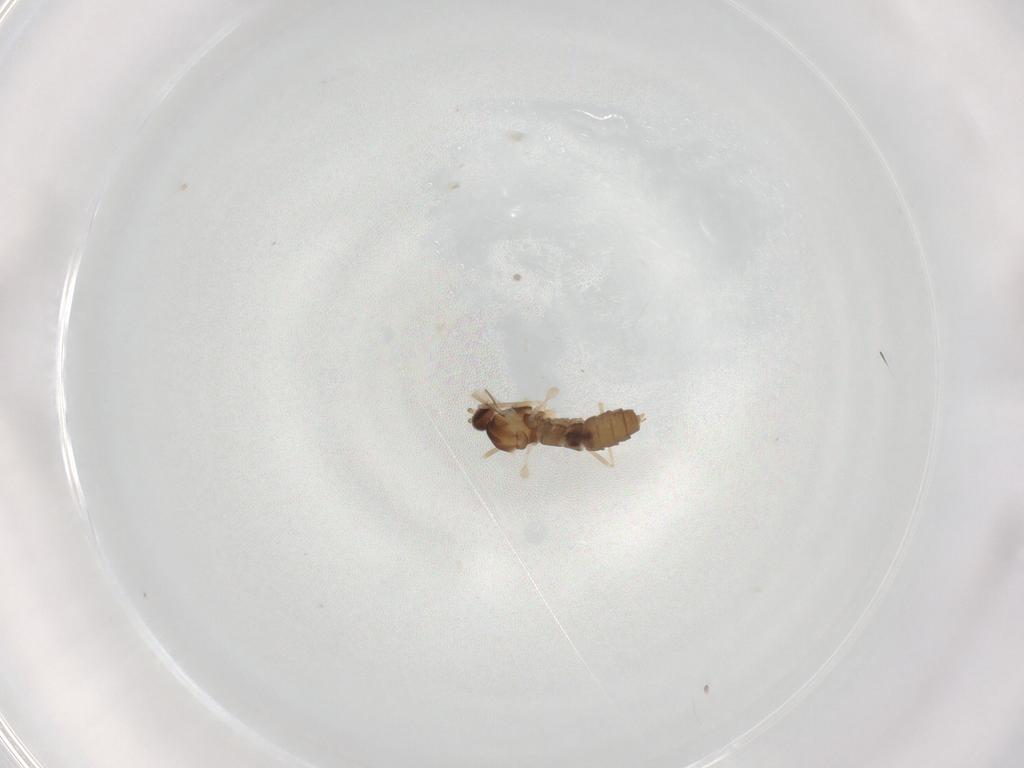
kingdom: Animalia
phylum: Arthropoda
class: Insecta
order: Diptera
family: Cecidomyiidae
